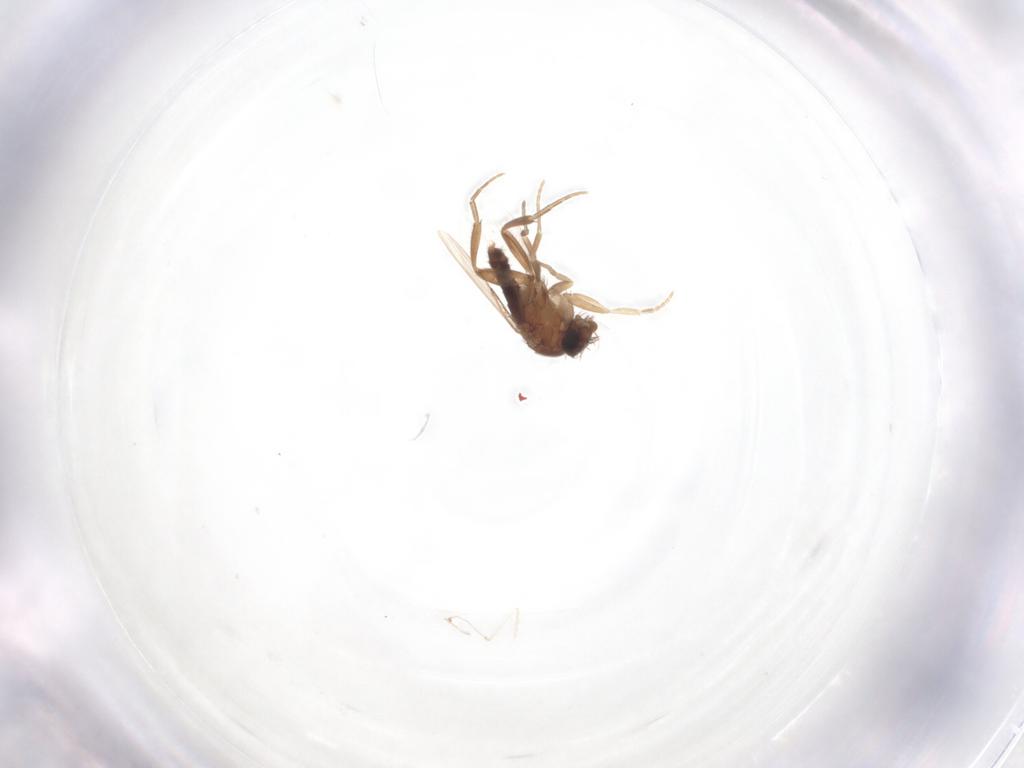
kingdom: Animalia
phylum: Arthropoda
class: Insecta
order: Diptera
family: Phoridae
